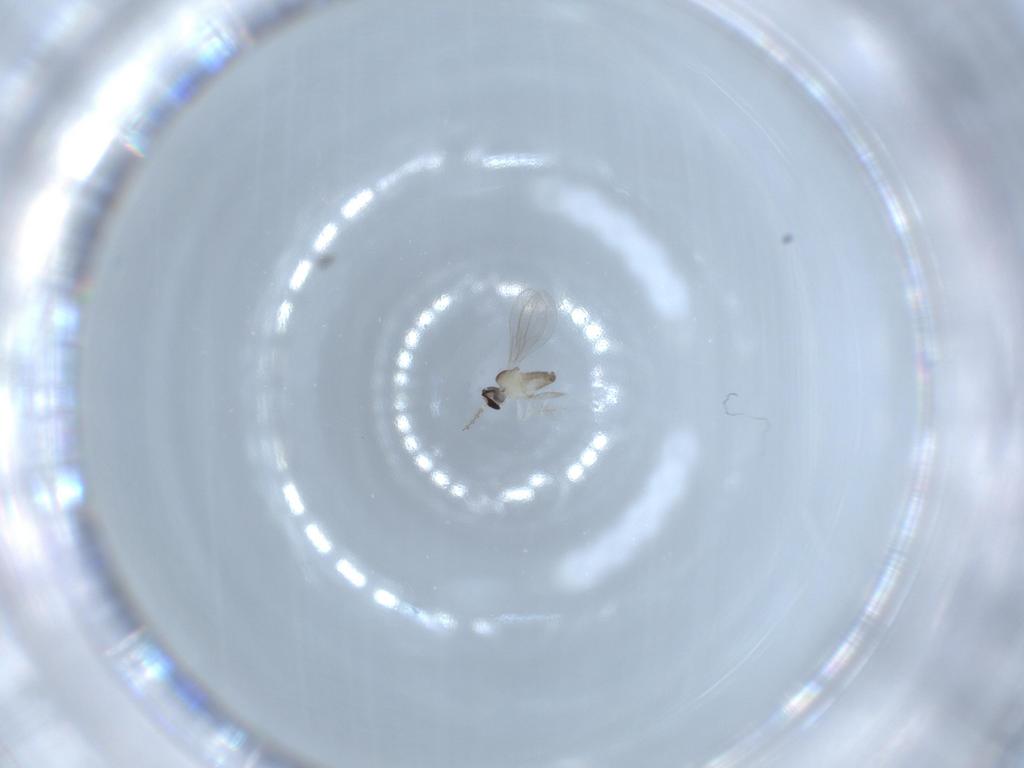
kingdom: Animalia
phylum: Arthropoda
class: Insecta
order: Diptera
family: Cecidomyiidae
